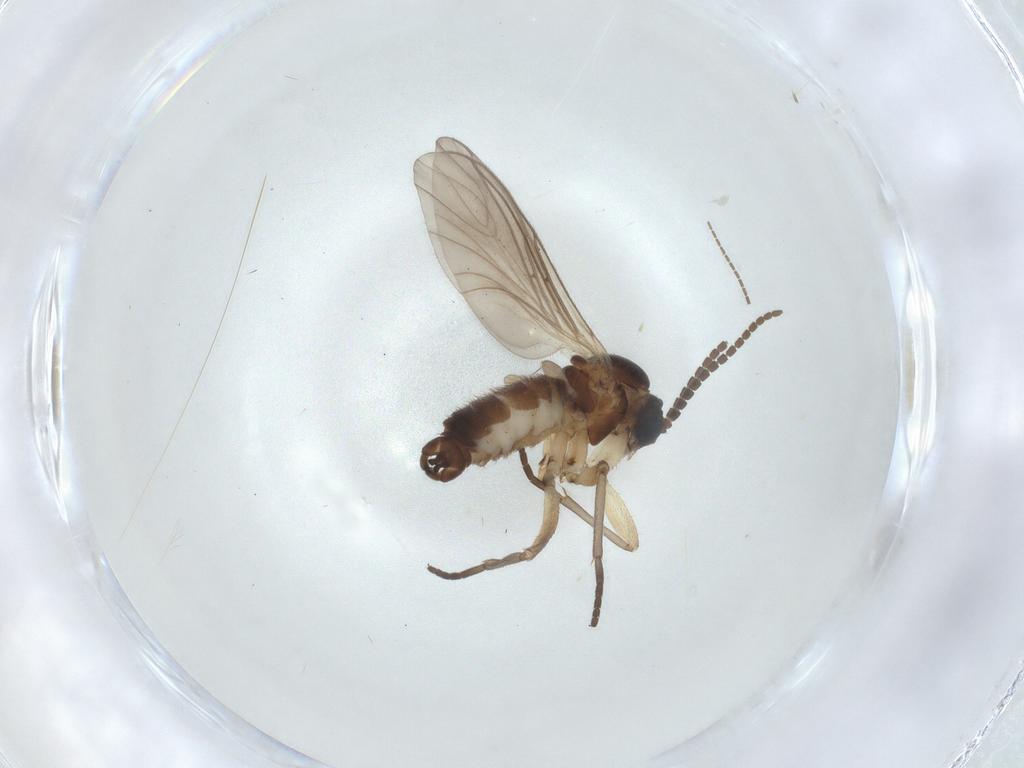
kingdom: Animalia
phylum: Arthropoda
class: Insecta
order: Diptera
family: Sciaridae
